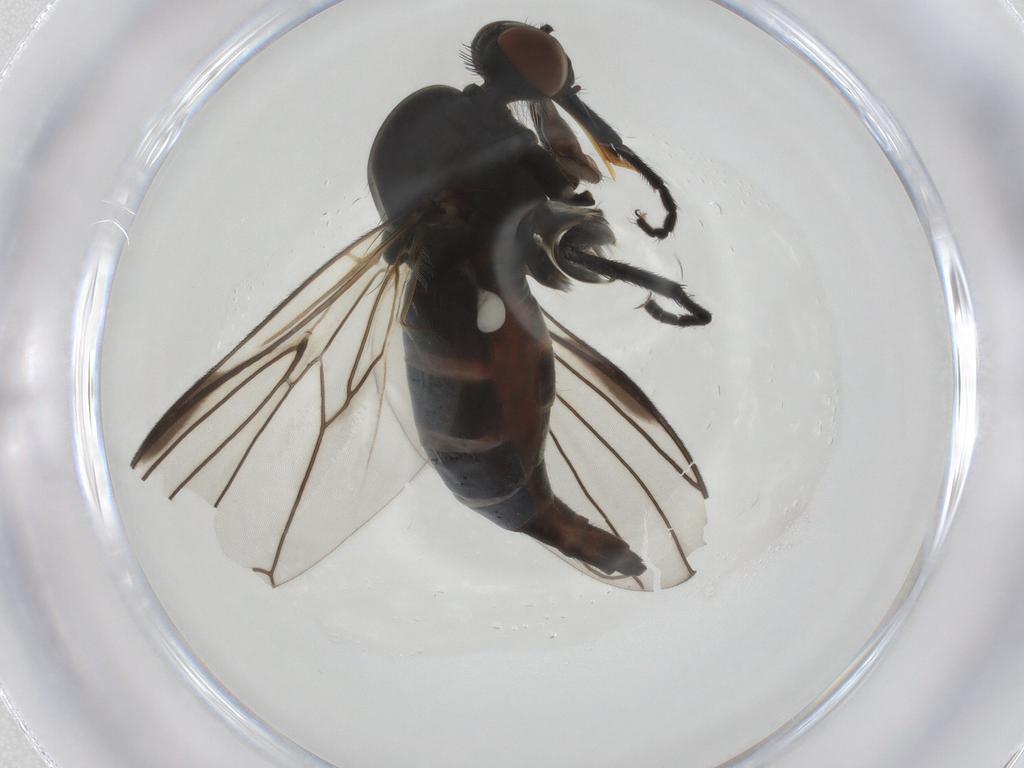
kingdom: Animalia
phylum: Arthropoda
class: Insecta
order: Diptera
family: Empididae
